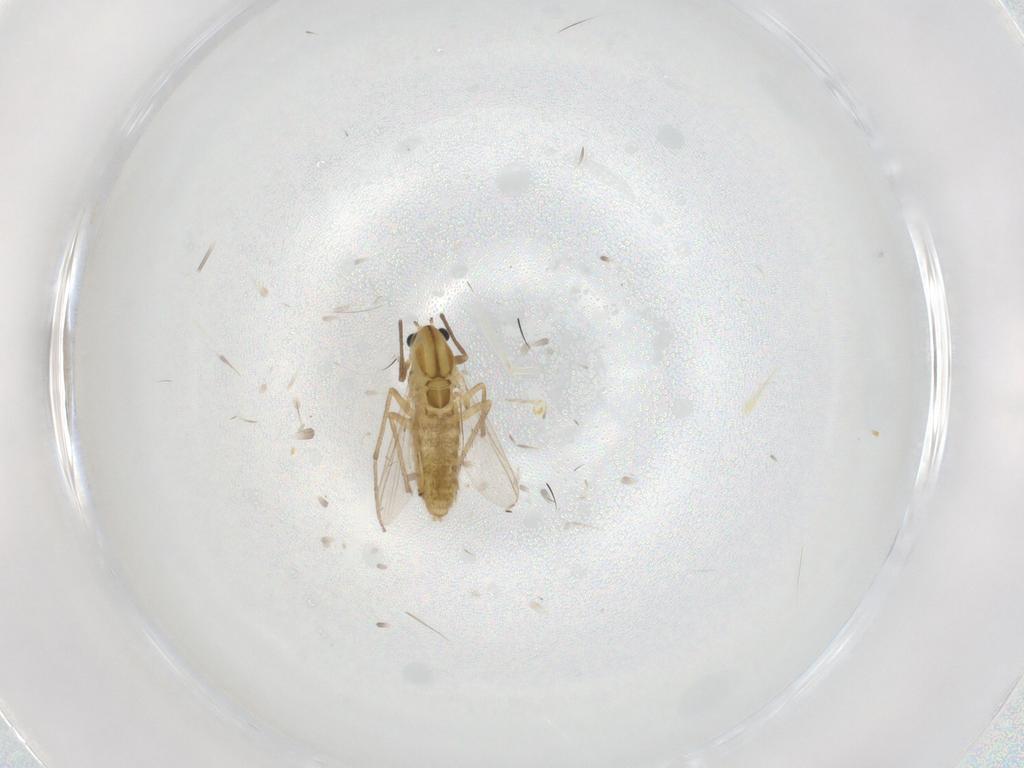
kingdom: Animalia
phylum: Arthropoda
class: Insecta
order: Diptera
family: Chironomidae
